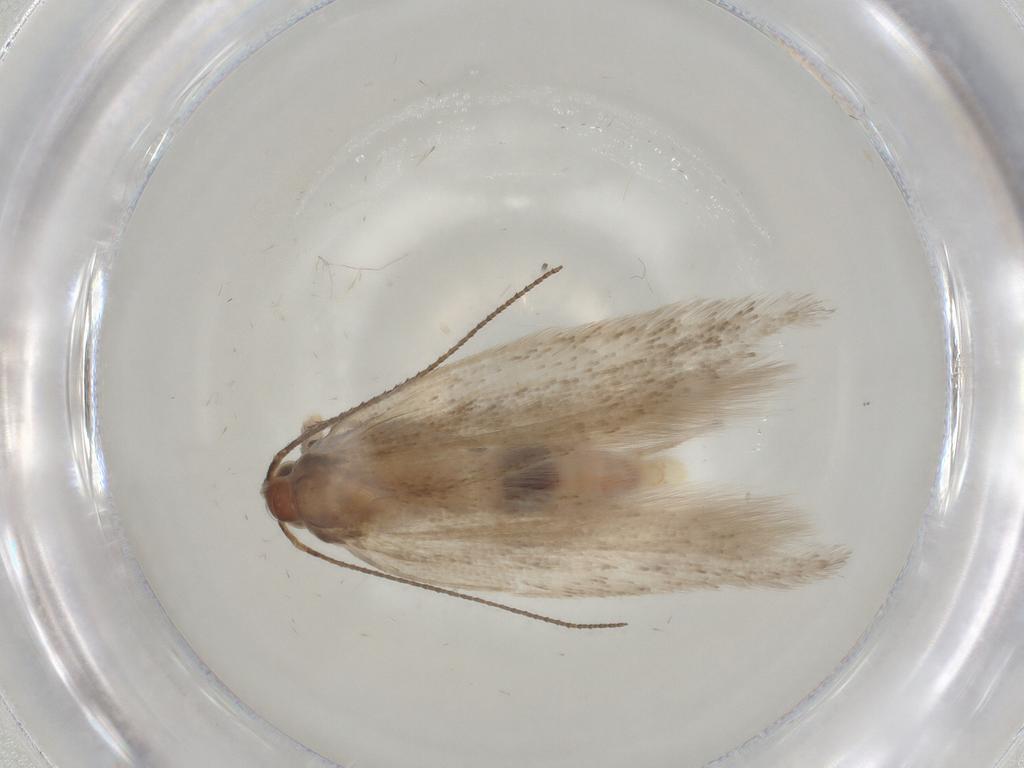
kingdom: Animalia
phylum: Arthropoda
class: Insecta
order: Lepidoptera
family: Gelechiidae
